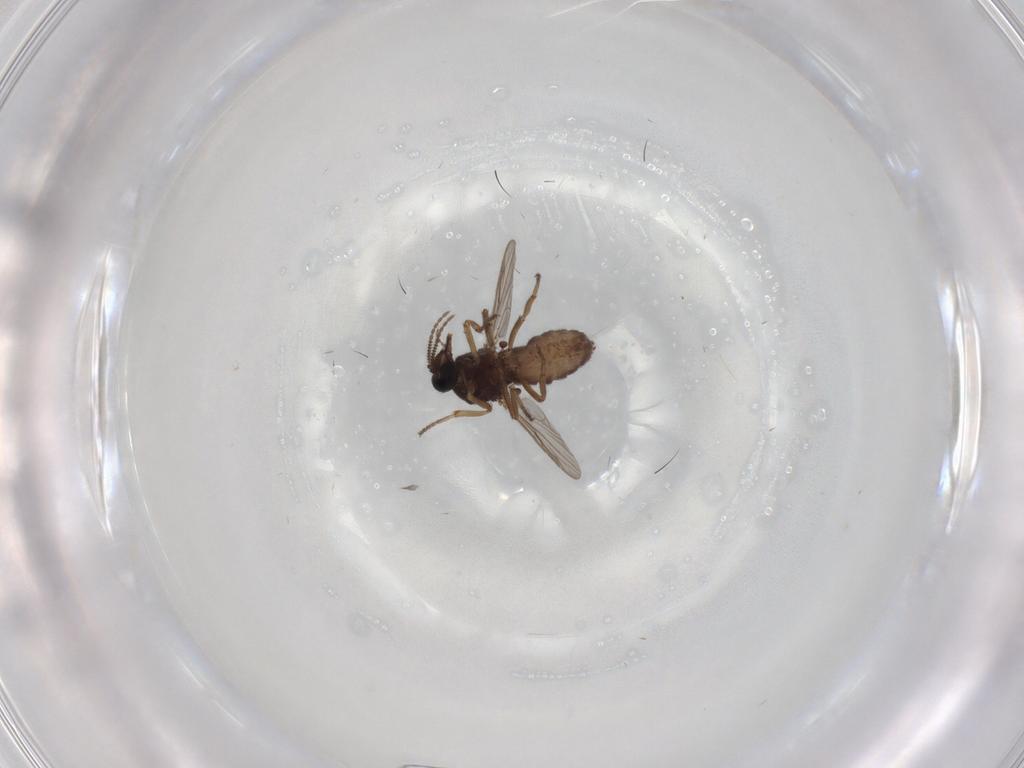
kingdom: Animalia
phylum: Arthropoda
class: Insecta
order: Diptera
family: Ceratopogonidae
